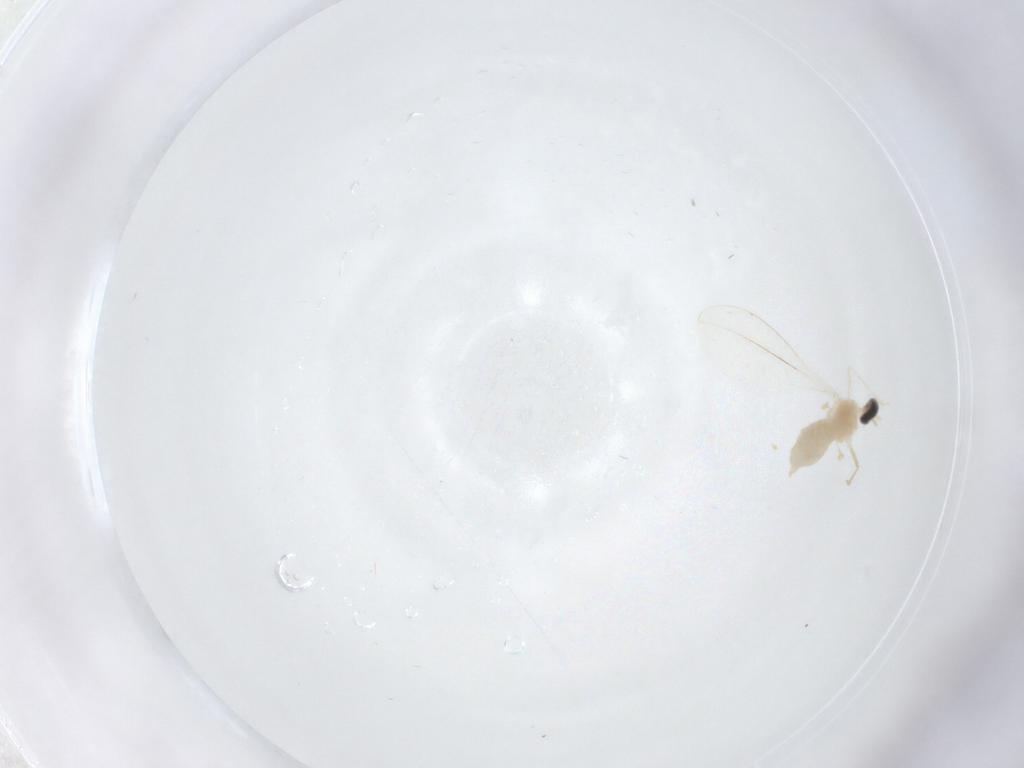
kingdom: Animalia
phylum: Arthropoda
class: Insecta
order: Diptera
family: Cecidomyiidae
